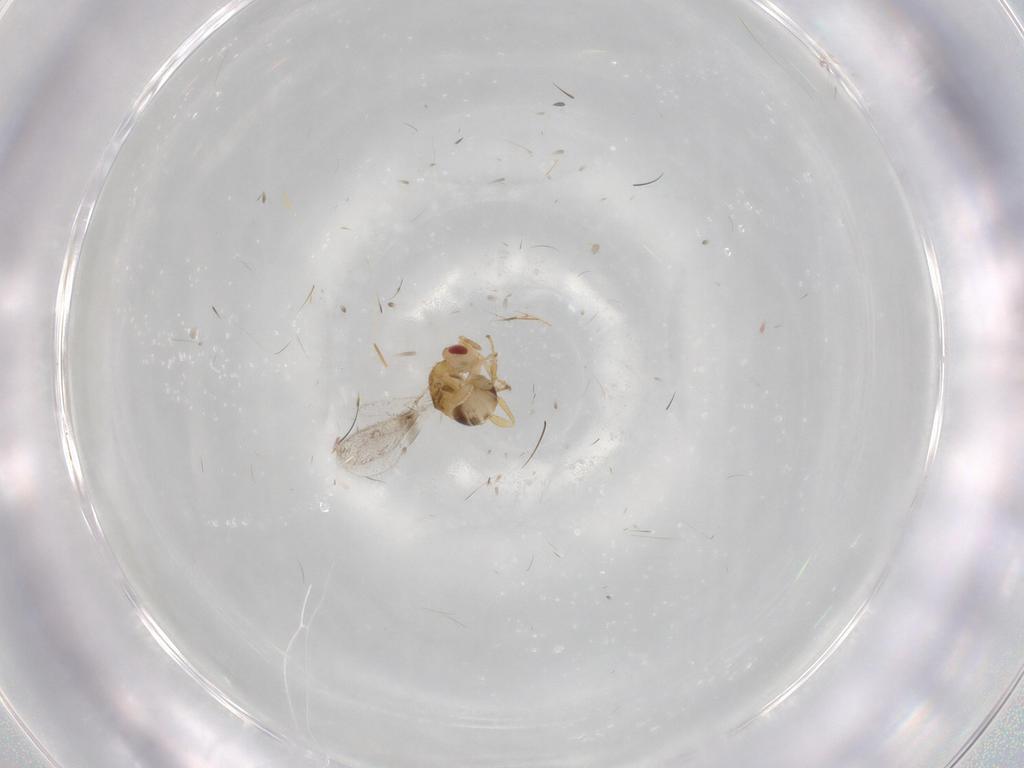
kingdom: Animalia
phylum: Arthropoda
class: Insecta
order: Hymenoptera
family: Torymidae
